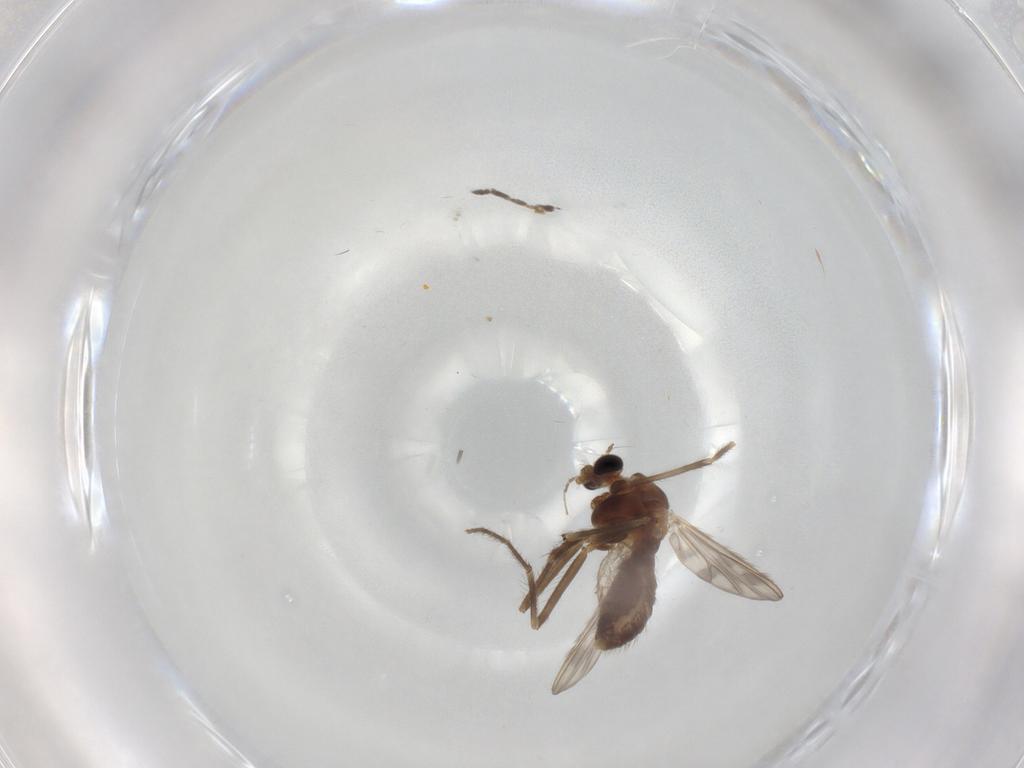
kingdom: Animalia
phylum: Arthropoda
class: Insecta
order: Diptera
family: Chironomidae
